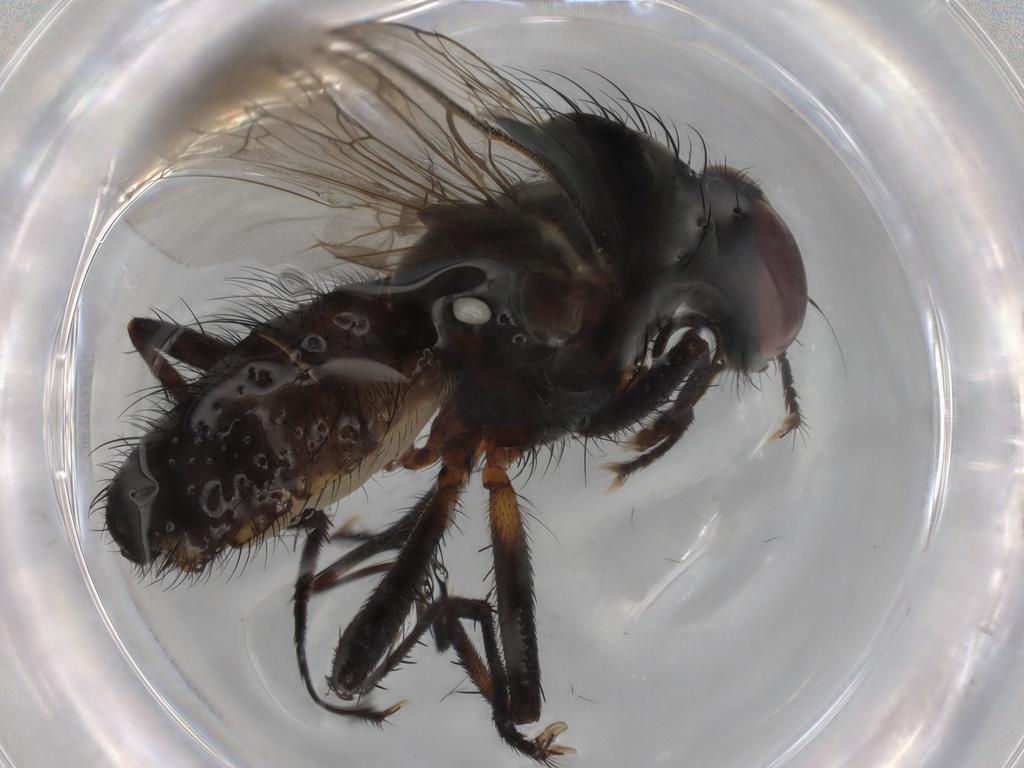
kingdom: Animalia
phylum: Arthropoda
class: Insecta
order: Diptera
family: Anthomyiidae
